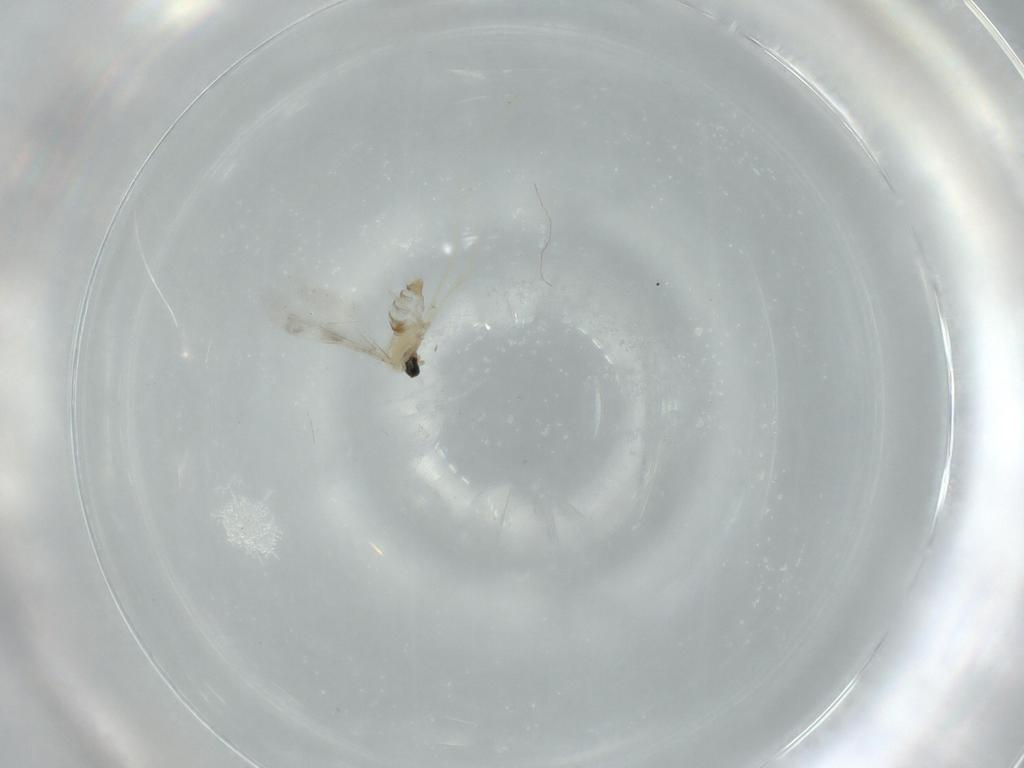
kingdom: Animalia
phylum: Arthropoda
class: Insecta
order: Diptera
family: Cecidomyiidae
